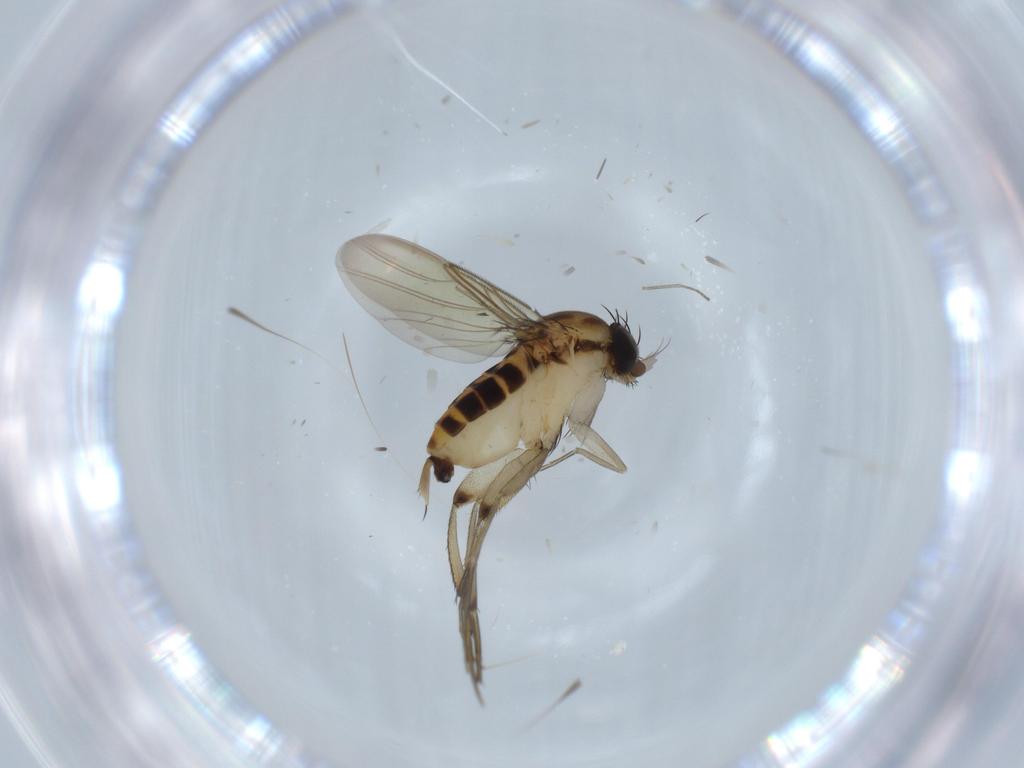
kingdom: Animalia
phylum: Arthropoda
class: Insecta
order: Diptera
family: Phoridae
